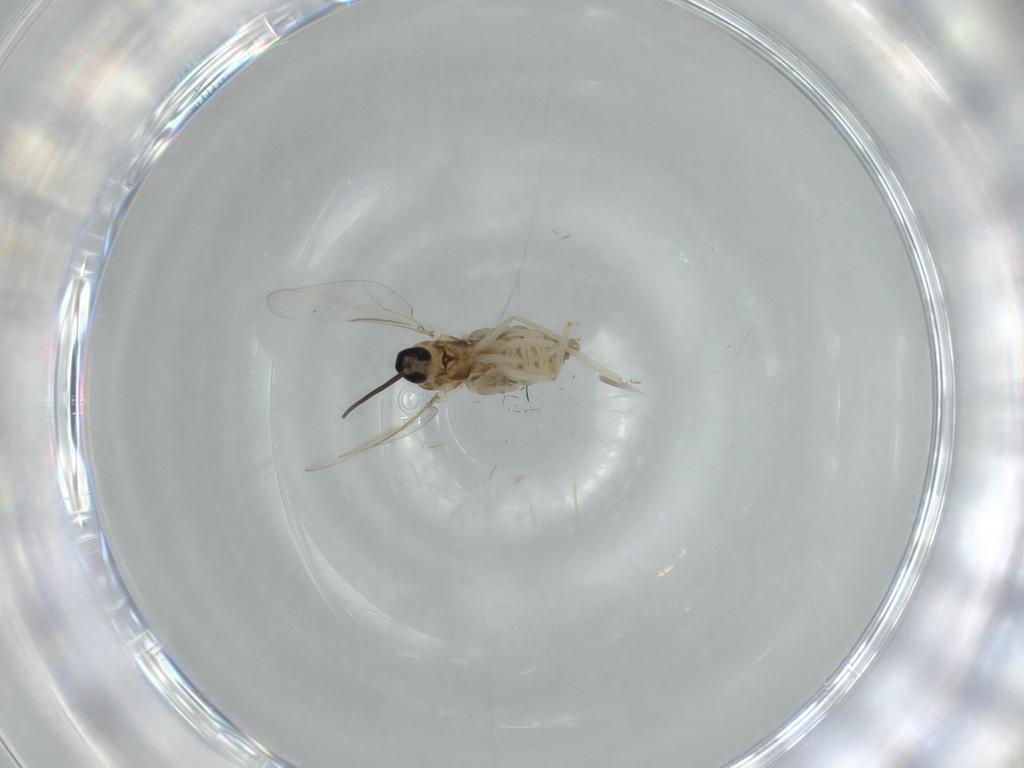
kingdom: Animalia
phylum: Arthropoda
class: Insecta
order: Diptera
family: Cecidomyiidae
